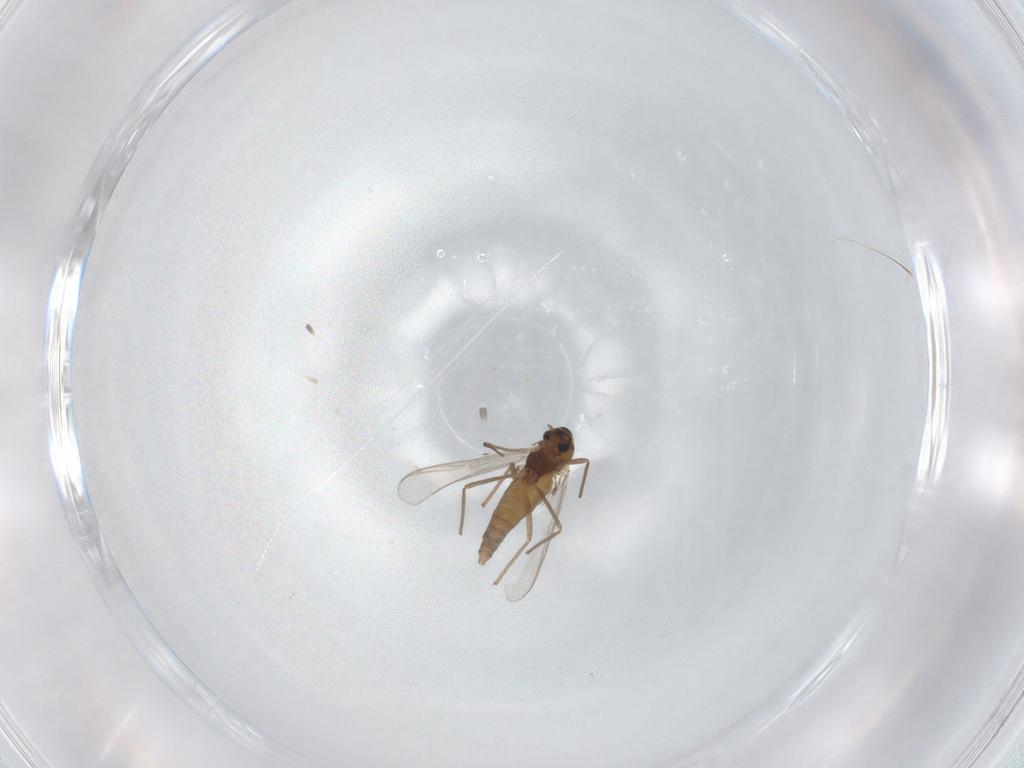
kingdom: Animalia
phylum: Arthropoda
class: Insecta
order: Diptera
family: Chironomidae
